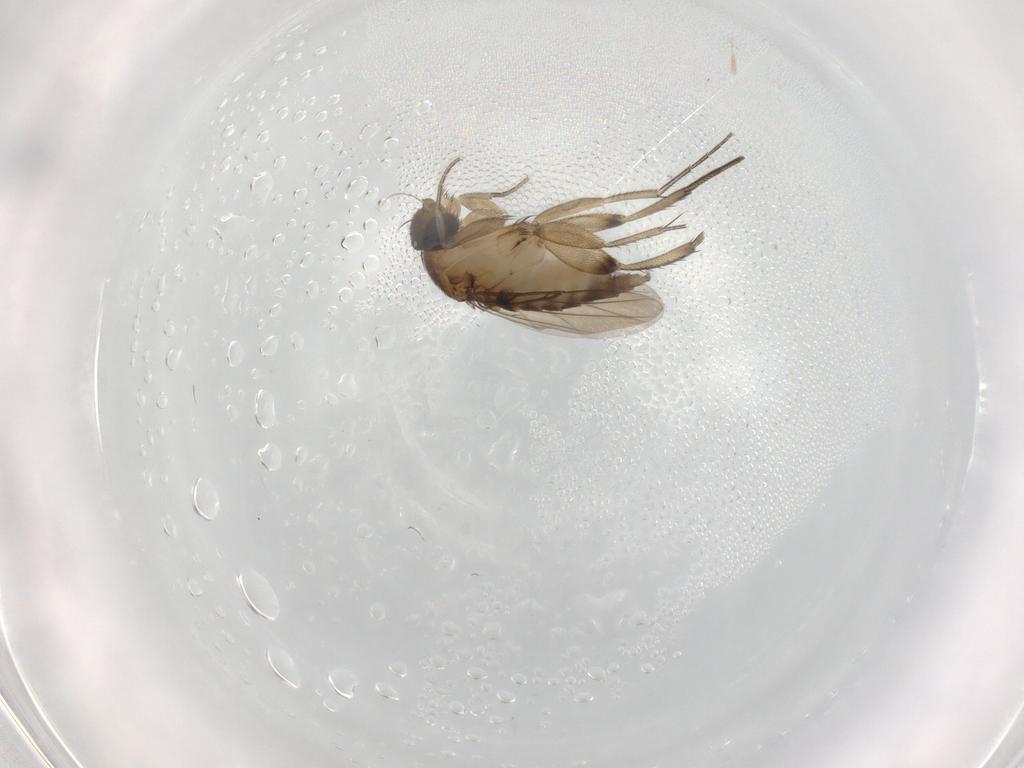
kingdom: Animalia
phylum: Arthropoda
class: Insecta
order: Diptera
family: Phoridae
